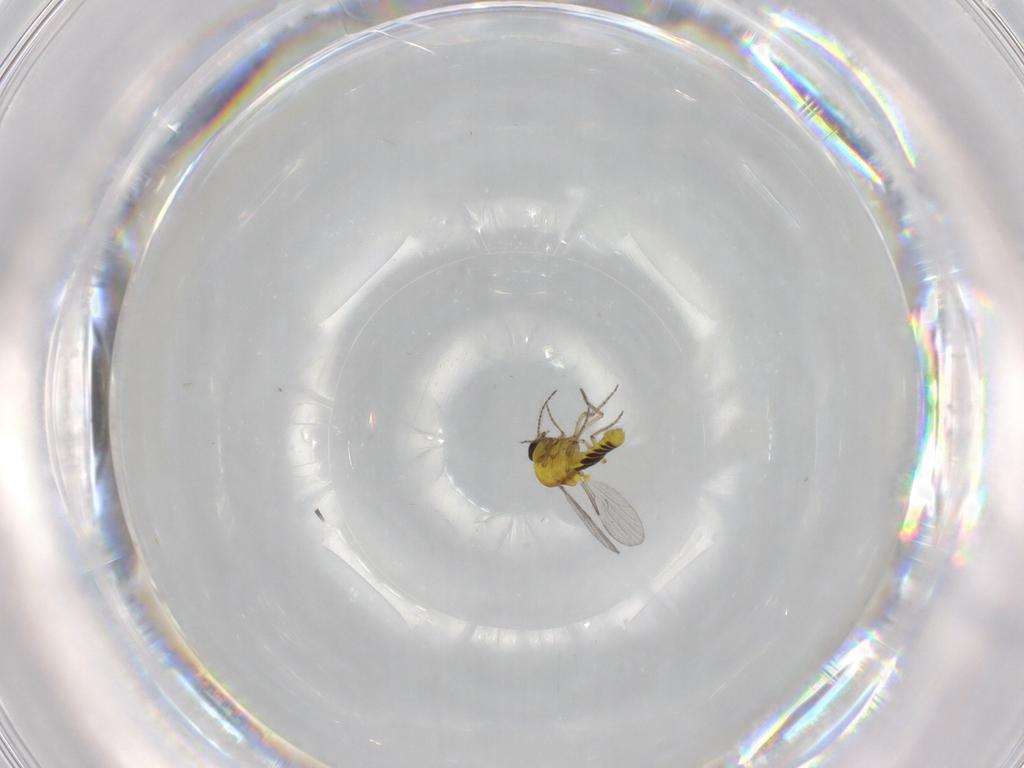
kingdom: Animalia
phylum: Arthropoda
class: Insecta
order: Diptera
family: Ceratopogonidae
